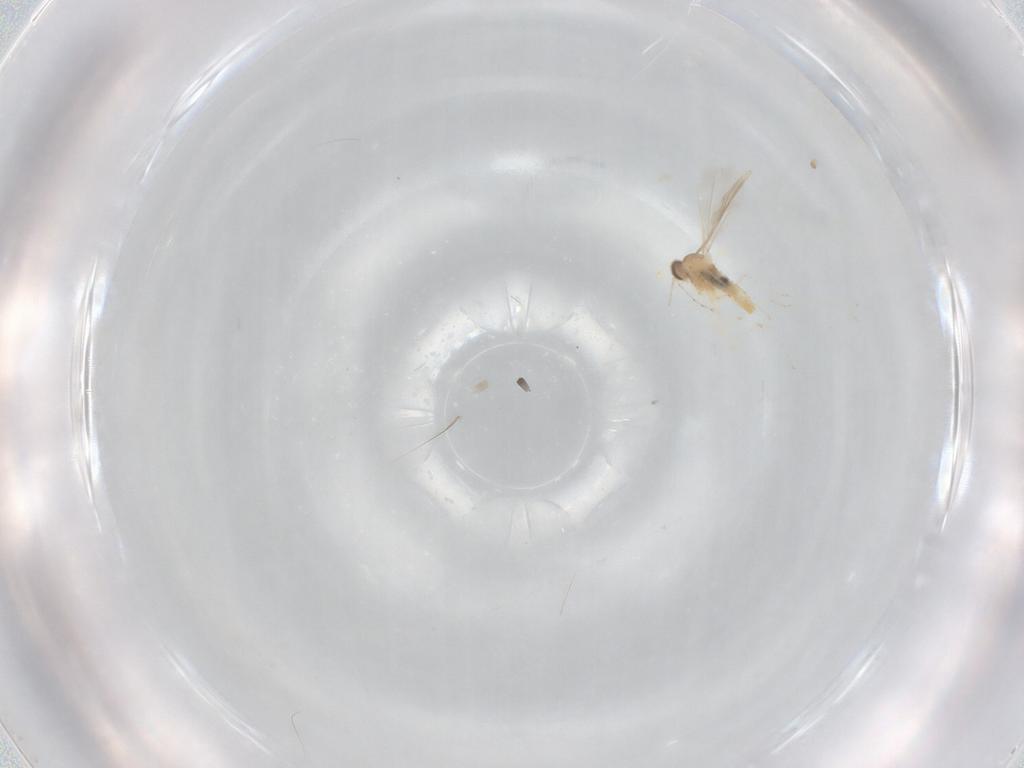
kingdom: Animalia
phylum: Arthropoda
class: Insecta
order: Diptera
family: Cecidomyiidae
